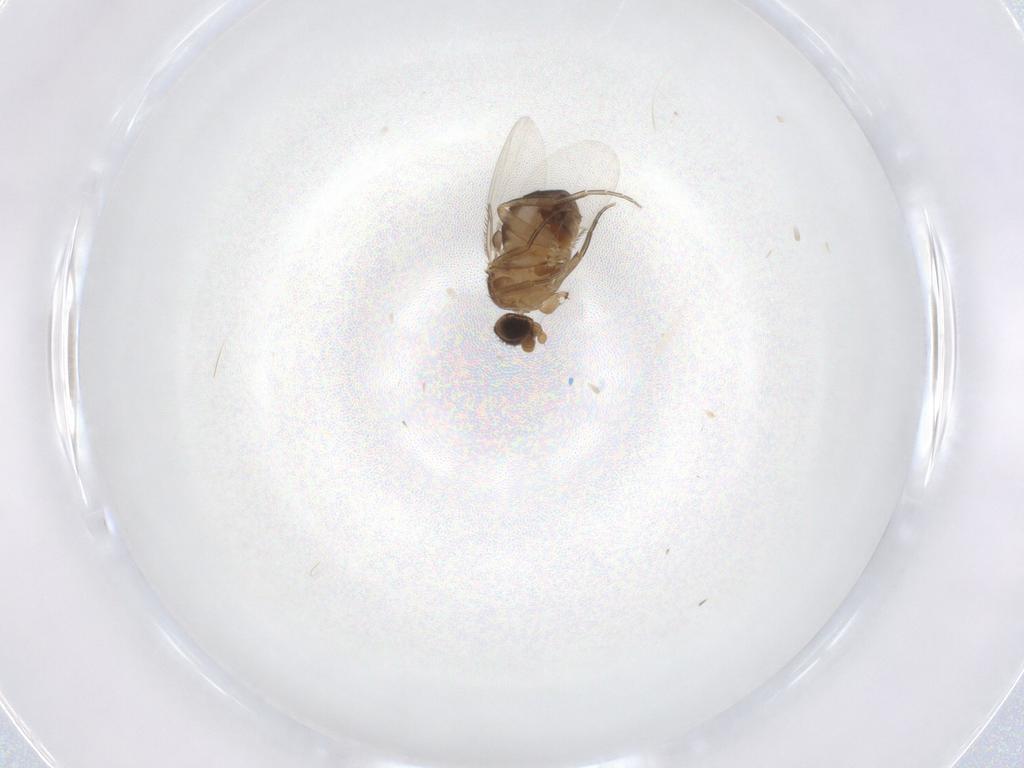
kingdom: Animalia
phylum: Arthropoda
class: Insecta
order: Diptera
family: Phoridae
